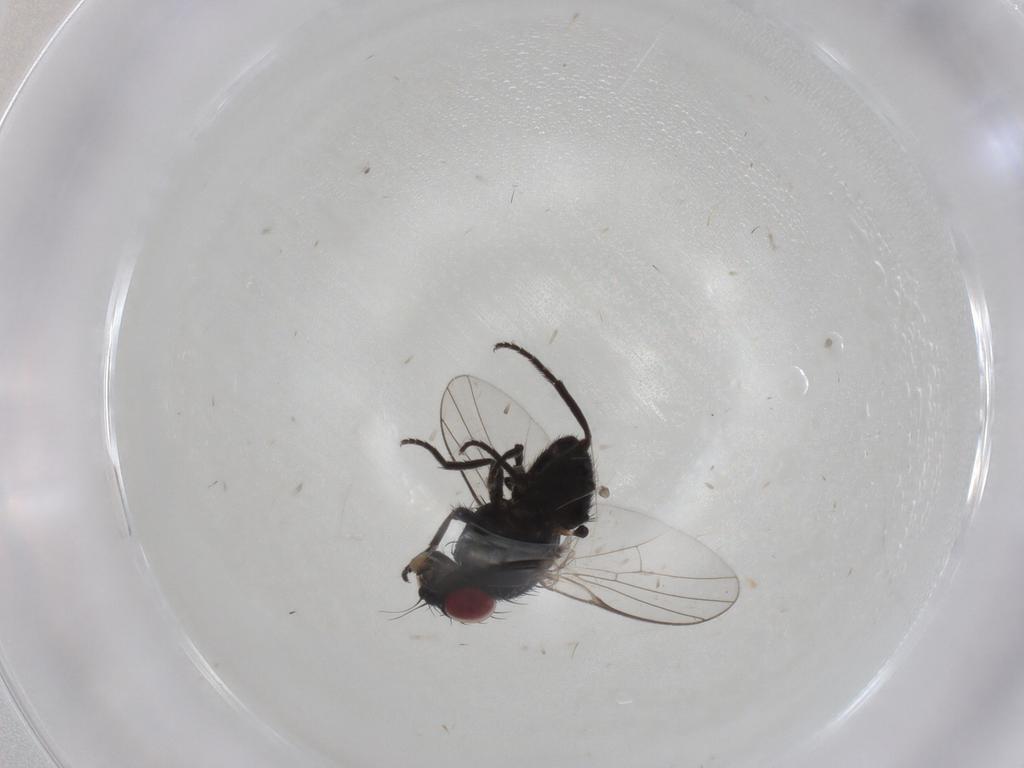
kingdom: Animalia
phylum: Arthropoda
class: Insecta
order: Diptera
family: Agromyzidae
